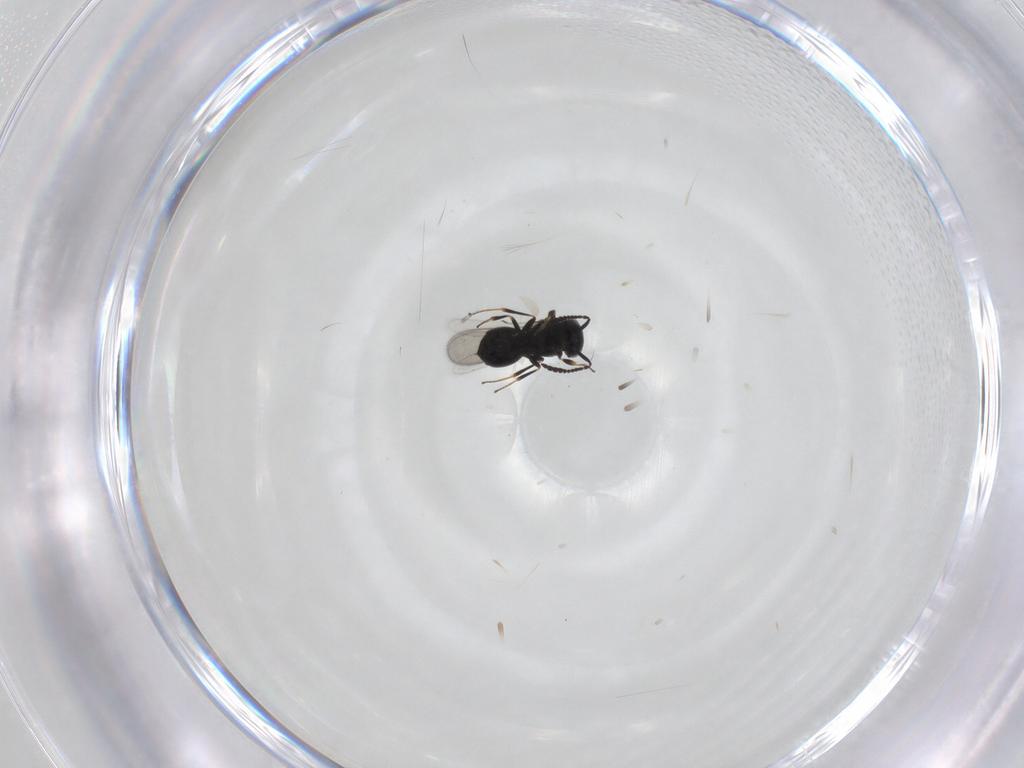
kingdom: Animalia
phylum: Arthropoda
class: Insecta
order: Hymenoptera
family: Scelionidae
